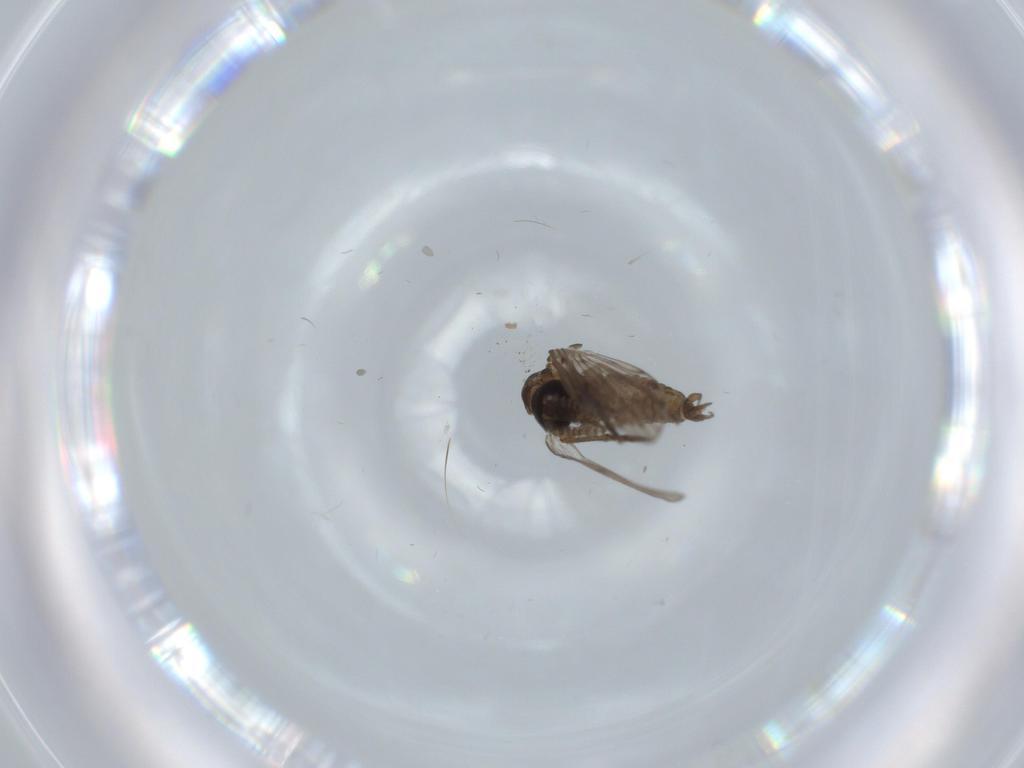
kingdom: Animalia
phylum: Arthropoda
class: Insecta
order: Diptera
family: Psychodidae
